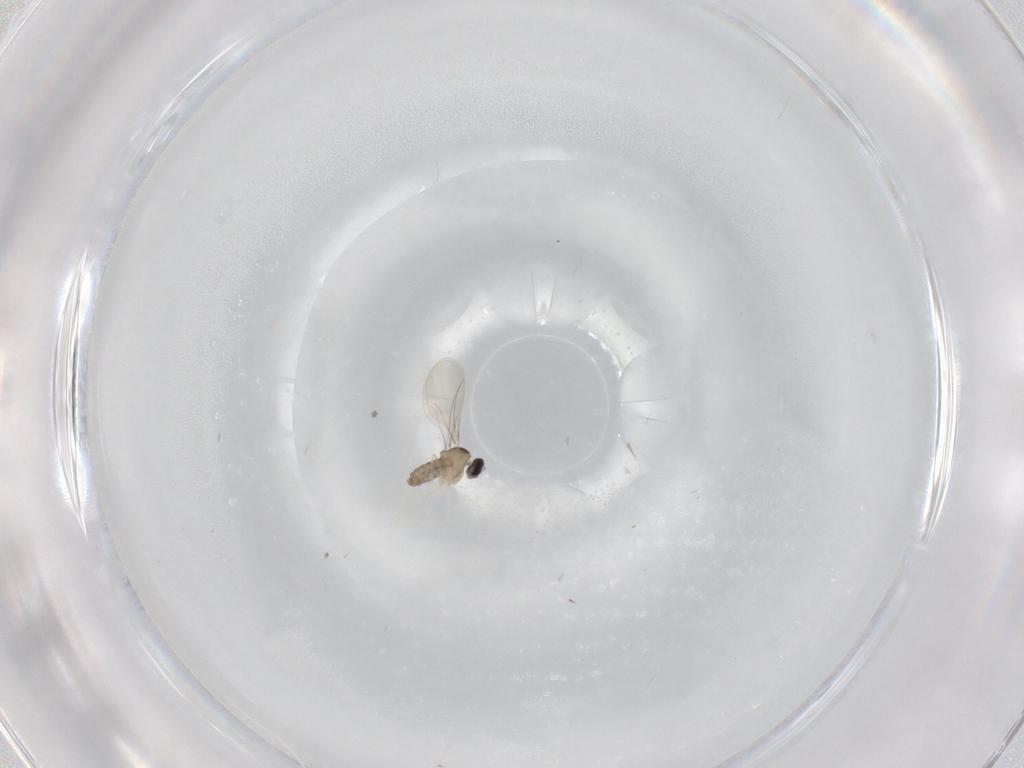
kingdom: Animalia
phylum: Arthropoda
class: Insecta
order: Diptera
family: Cecidomyiidae
